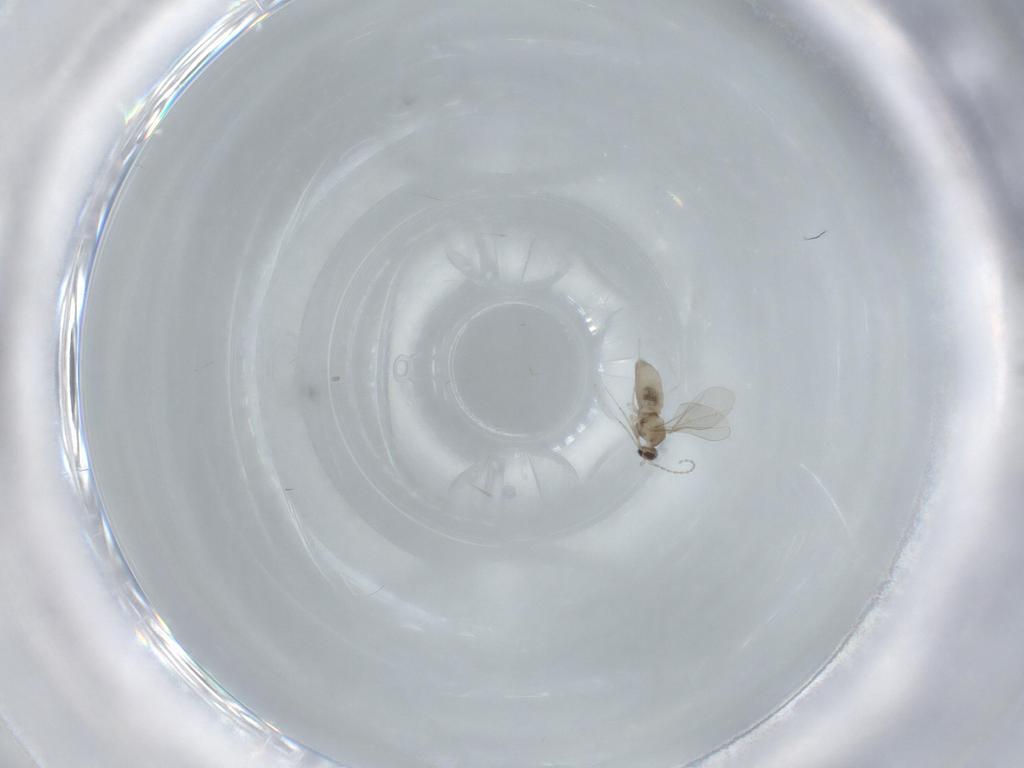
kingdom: Animalia
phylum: Arthropoda
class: Insecta
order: Diptera
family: Cecidomyiidae
